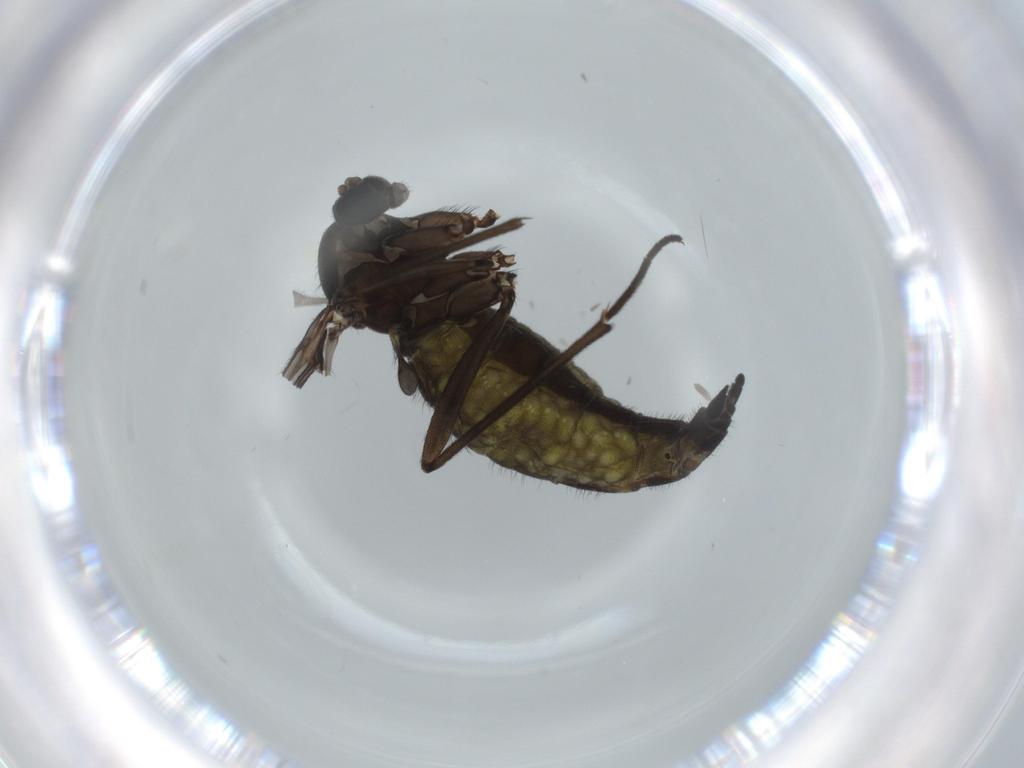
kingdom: Animalia
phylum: Arthropoda
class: Insecta
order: Diptera
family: Sciaridae
